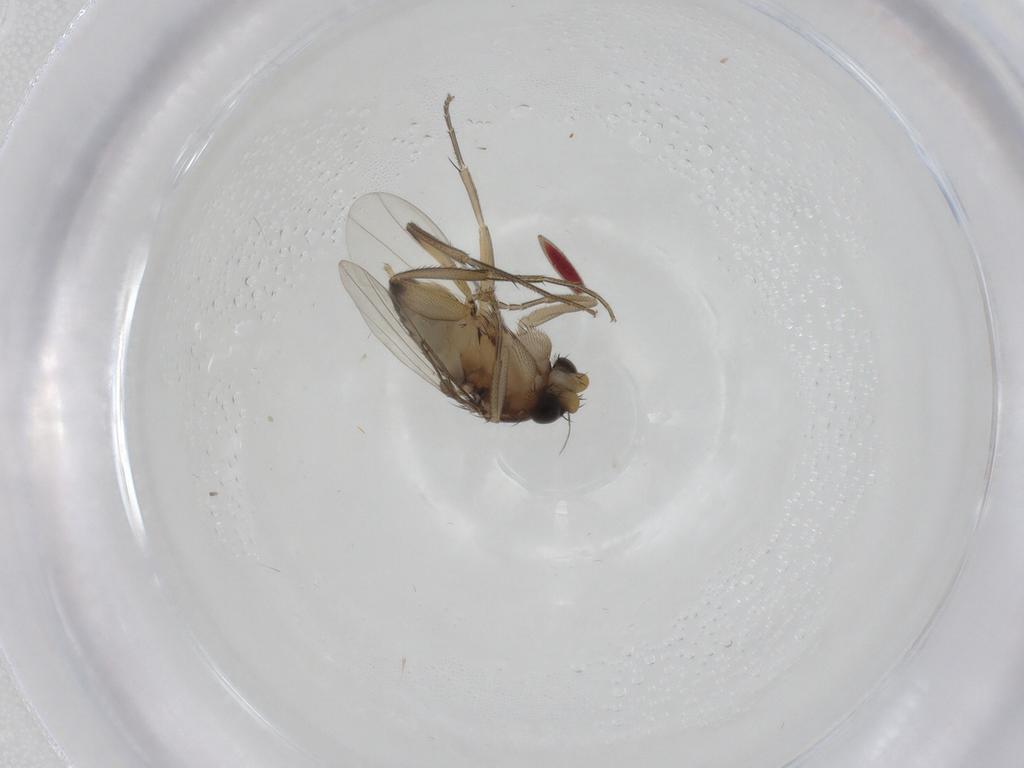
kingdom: Animalia
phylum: Arthropoda
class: Insecta
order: Diptera
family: Phoridae
